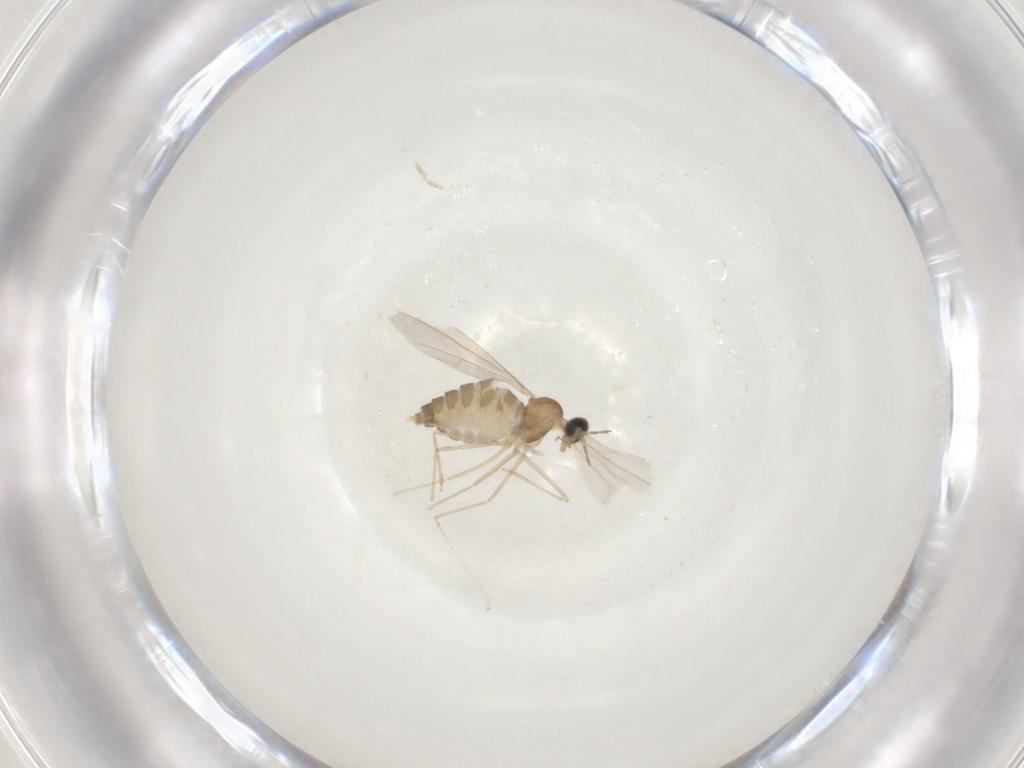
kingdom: Animalia
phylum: Arthropoda
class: Insecta
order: Diptera
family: Cecidomyiidae
